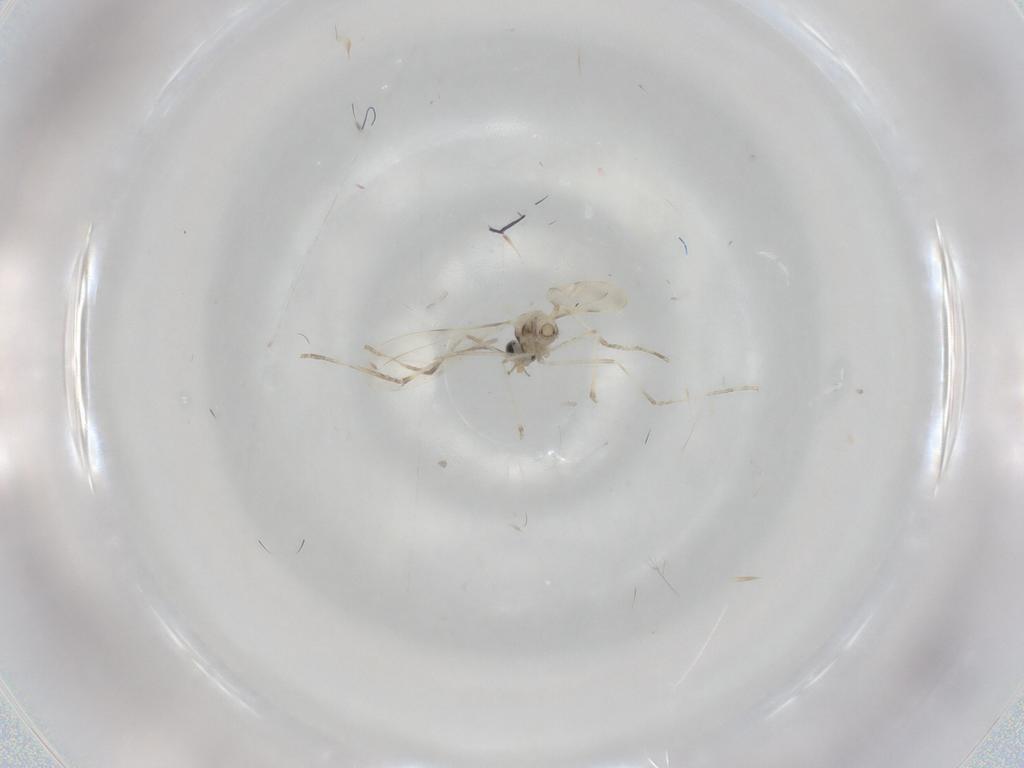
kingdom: Animalia
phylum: Arthropoda
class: Insecta
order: Diptera
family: Cecidomyiidae
